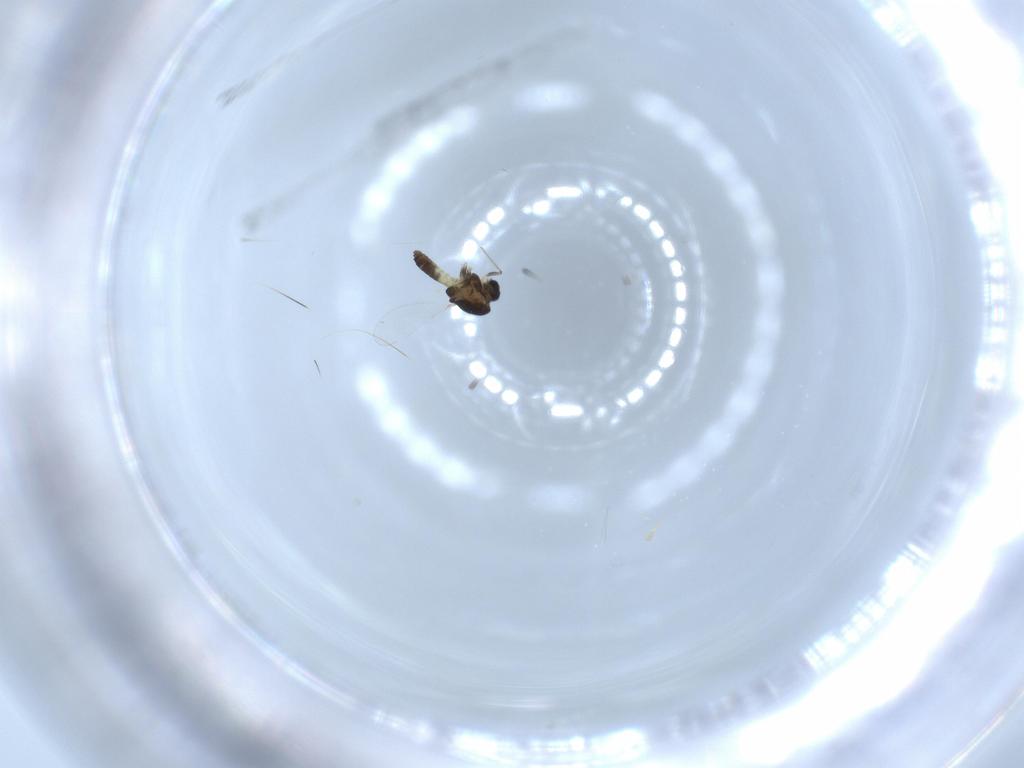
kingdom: Animalia
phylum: Arthropoda
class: Insecta
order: Diptera
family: Chironomidae
